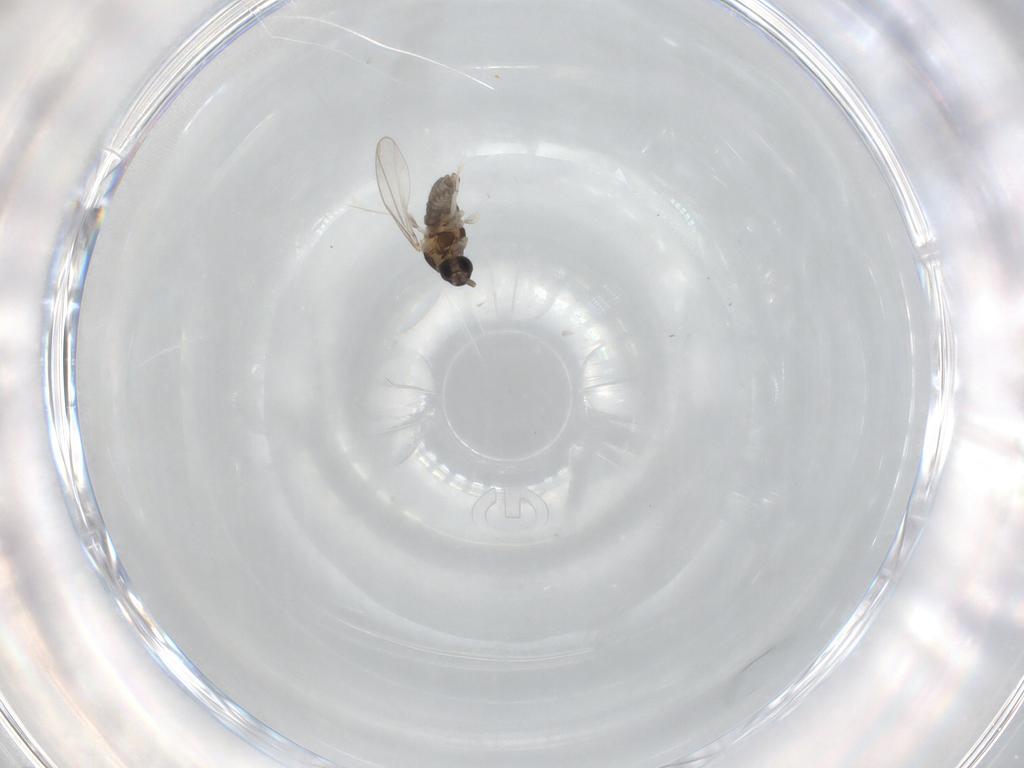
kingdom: Animalia
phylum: Arthropoda
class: Insecta
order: Diptera
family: Cecidomyiidae
